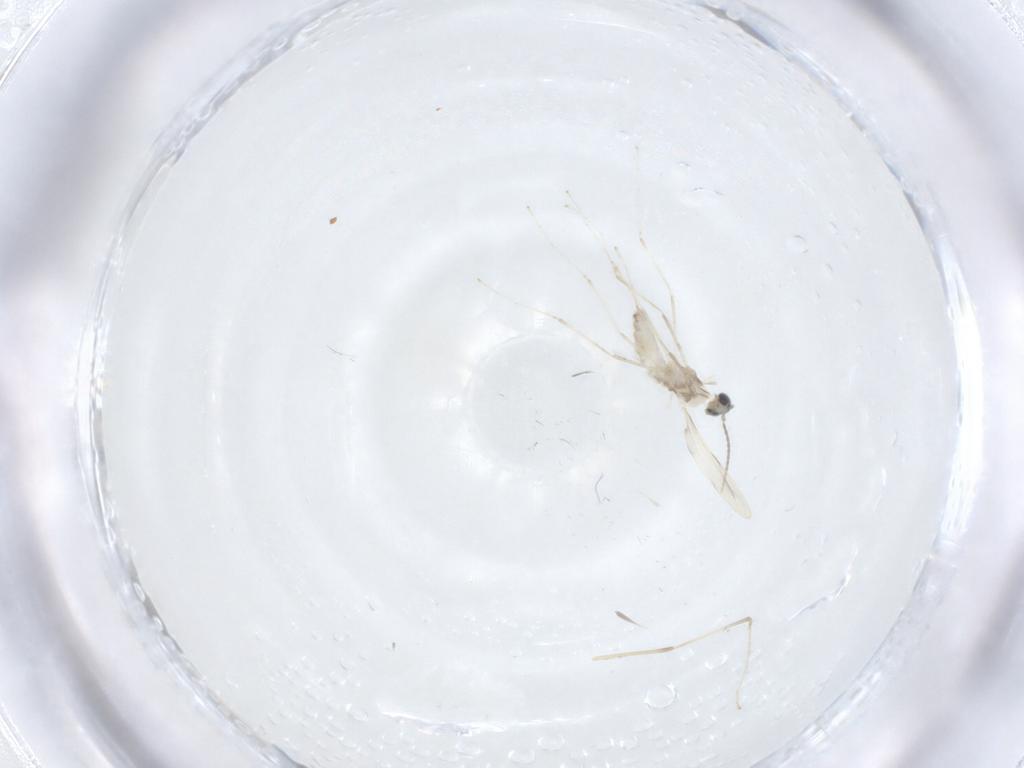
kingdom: Animalia
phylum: Arthropoda
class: Insecta
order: Diptera
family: Cecidomyiidae
